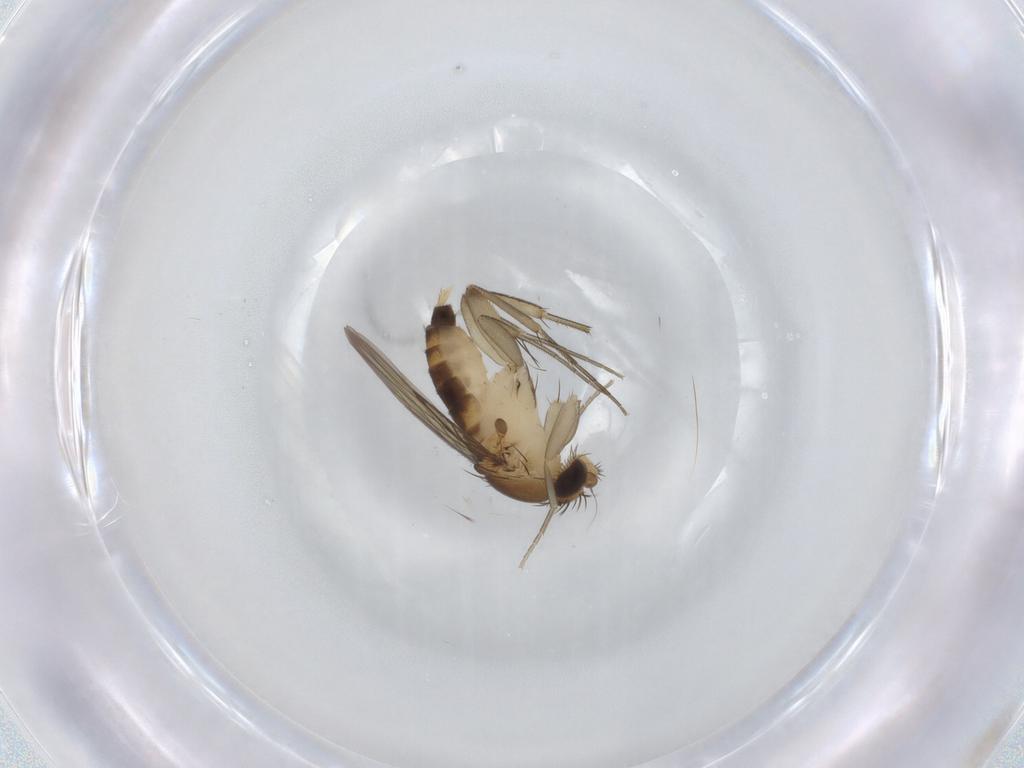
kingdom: Animalia
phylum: Arthropoda
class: Insecta
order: Diptera
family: Phoridae
